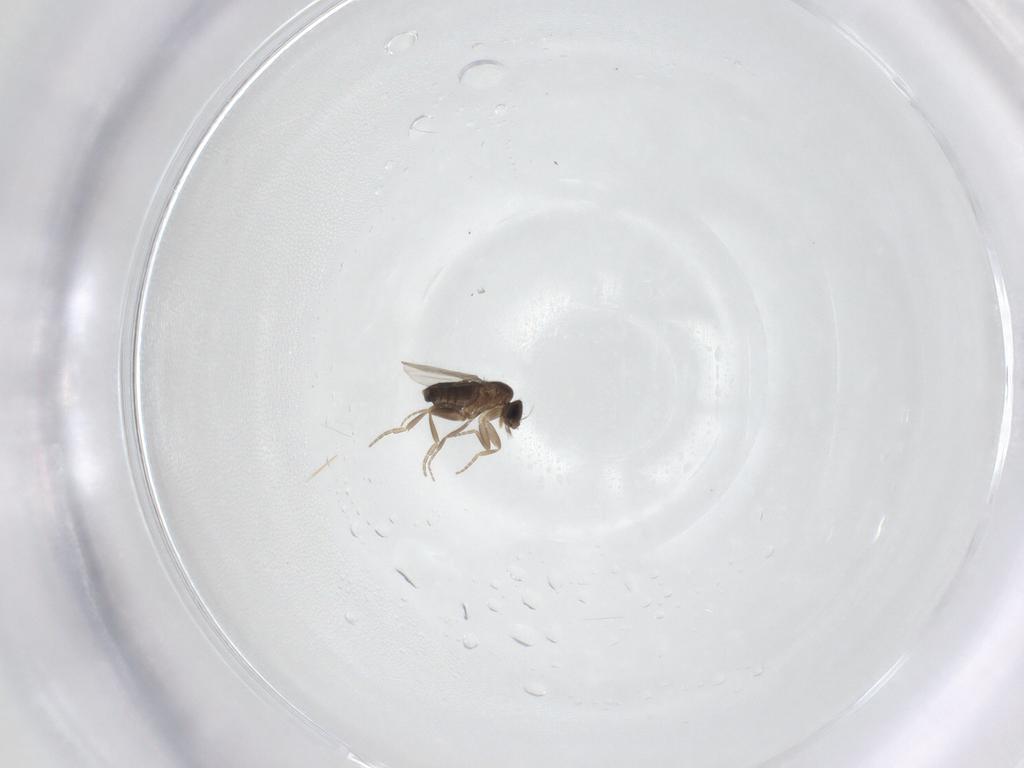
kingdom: Animalia
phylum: Arthropoda
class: Insecta
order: Diptera
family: Phoridae
